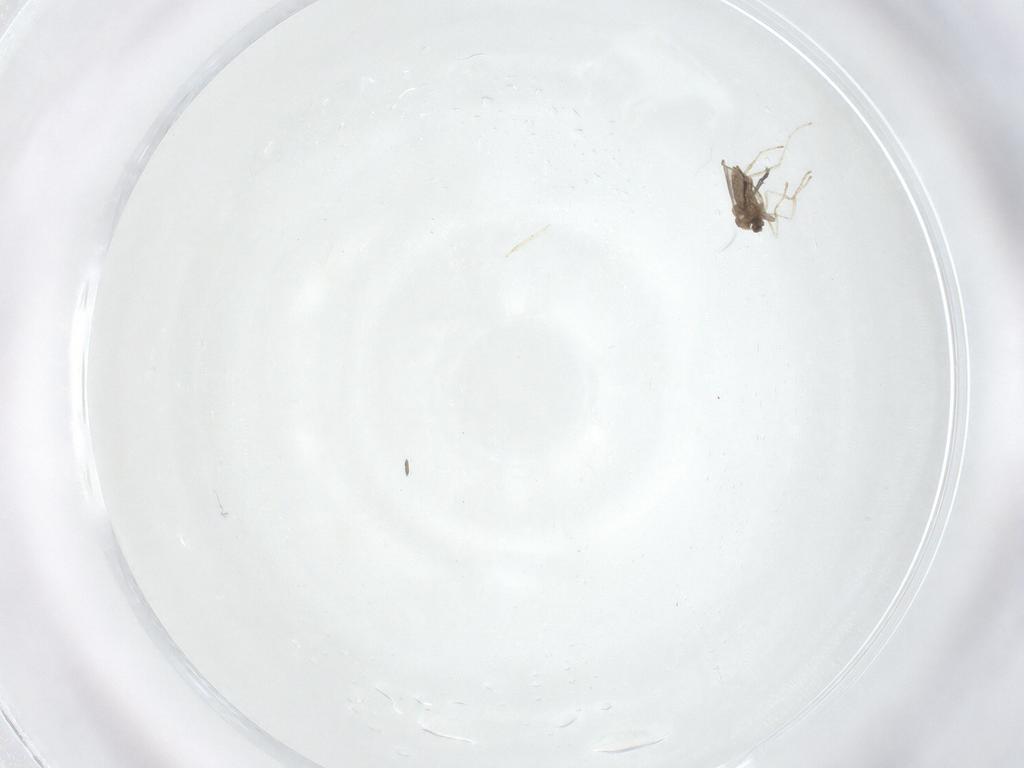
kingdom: Animalia
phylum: Arthropoda
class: Insecta
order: Diptera
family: Cecidomyiidae
